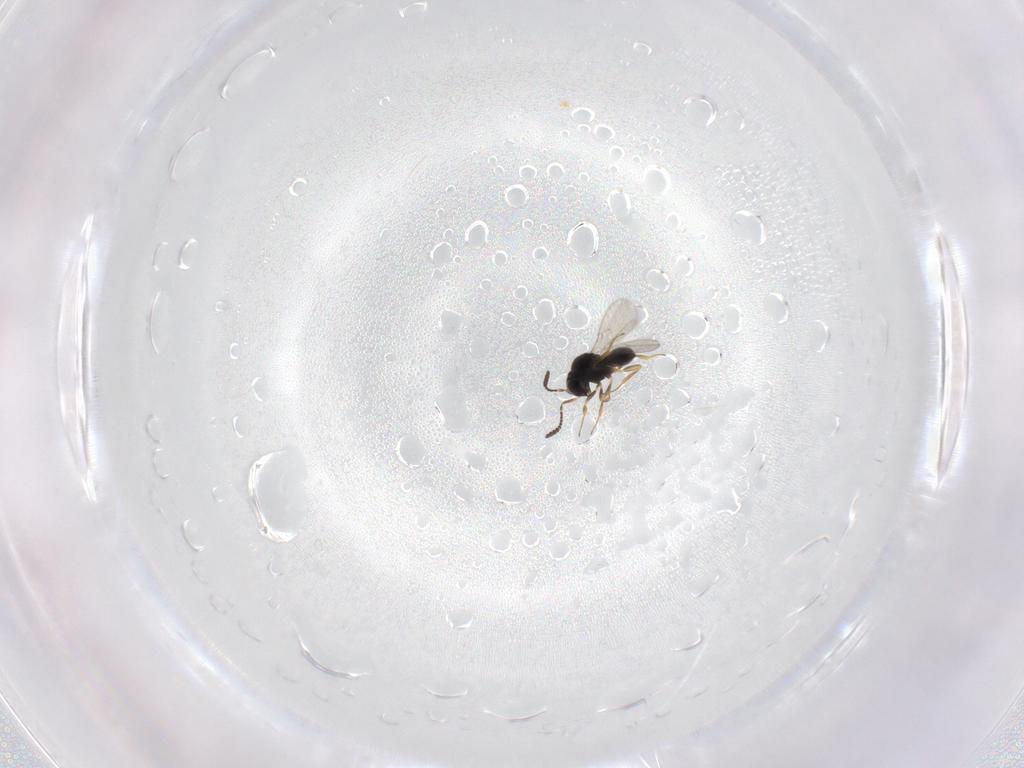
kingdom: Animalia
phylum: Arthropoda
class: Insecta
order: Hymenoptera
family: Scelionidae
